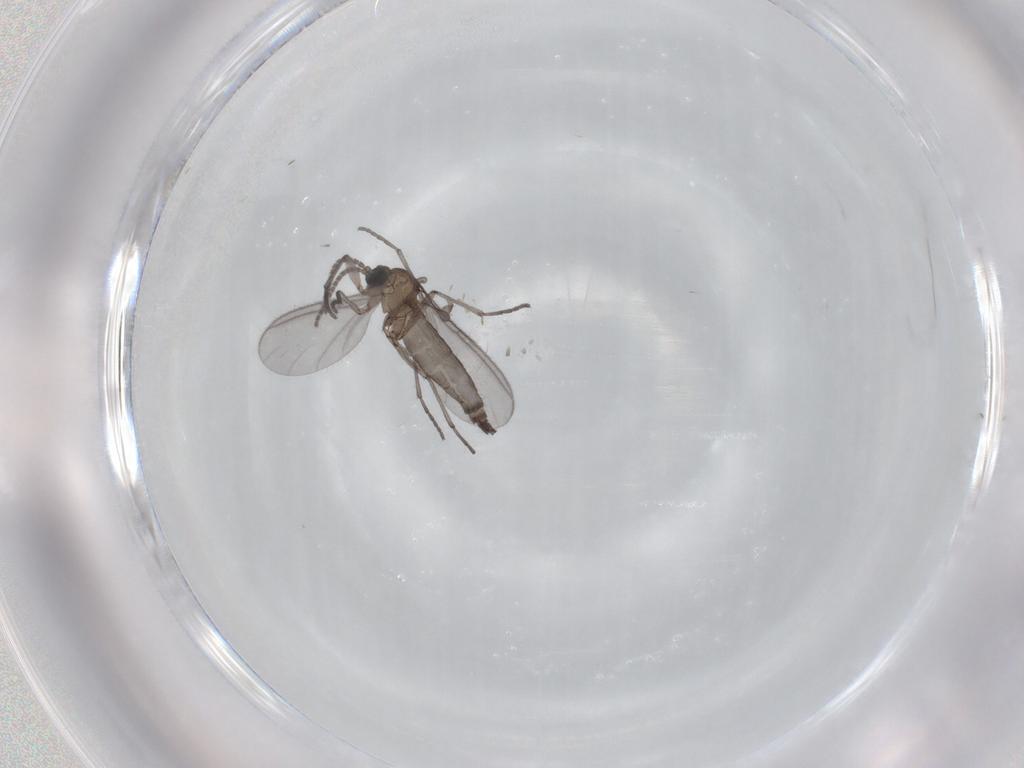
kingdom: Animalia
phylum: Arthropoda
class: Insecta
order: Diptera
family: Sciaridae
